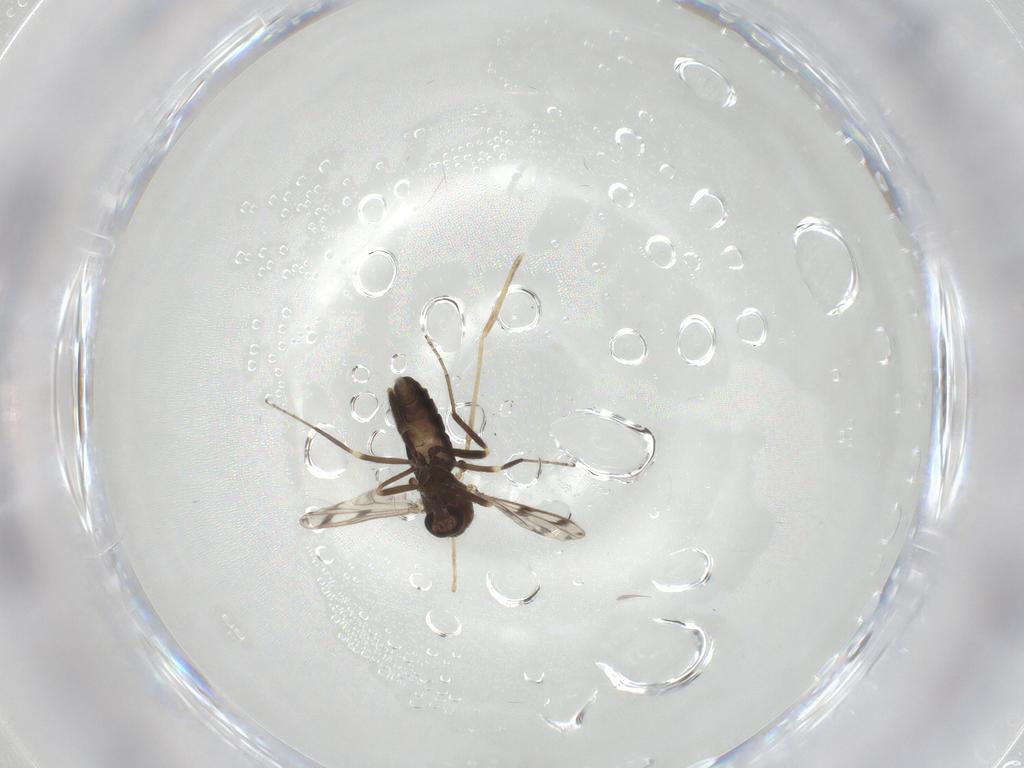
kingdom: Animalia
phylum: Arthropoda
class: Insecta
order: Diptera
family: Ceratopogonidae
